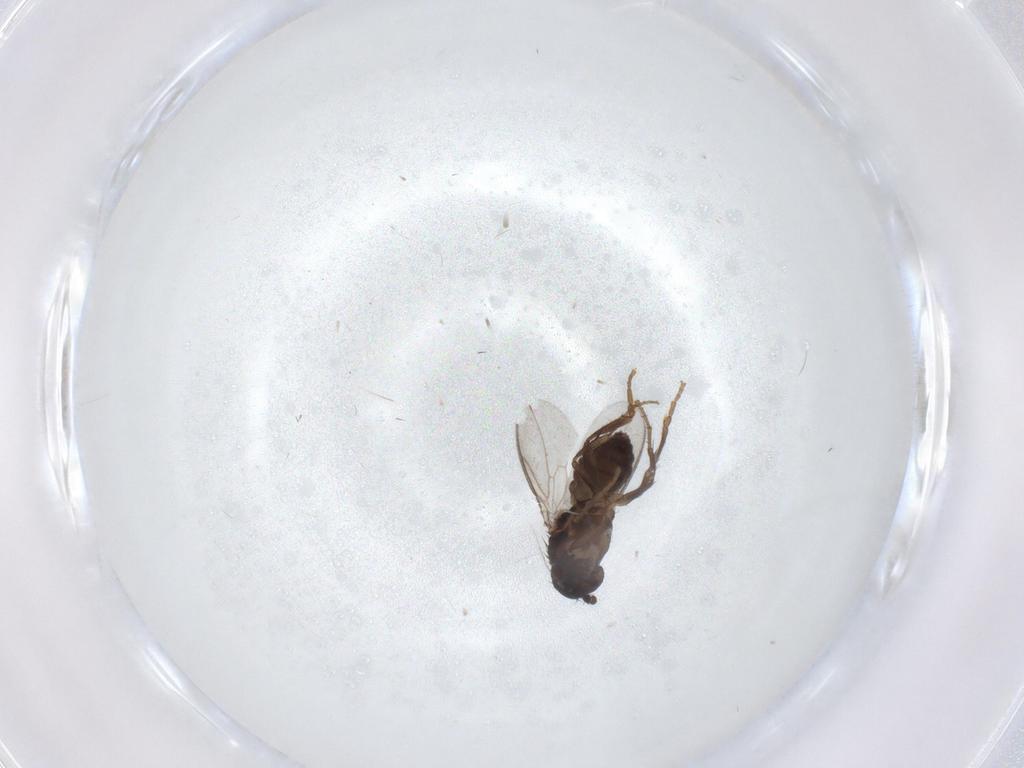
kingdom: Animalia
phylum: Arthropoda
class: Insecta
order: Diptera
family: Sphaeroceridae
